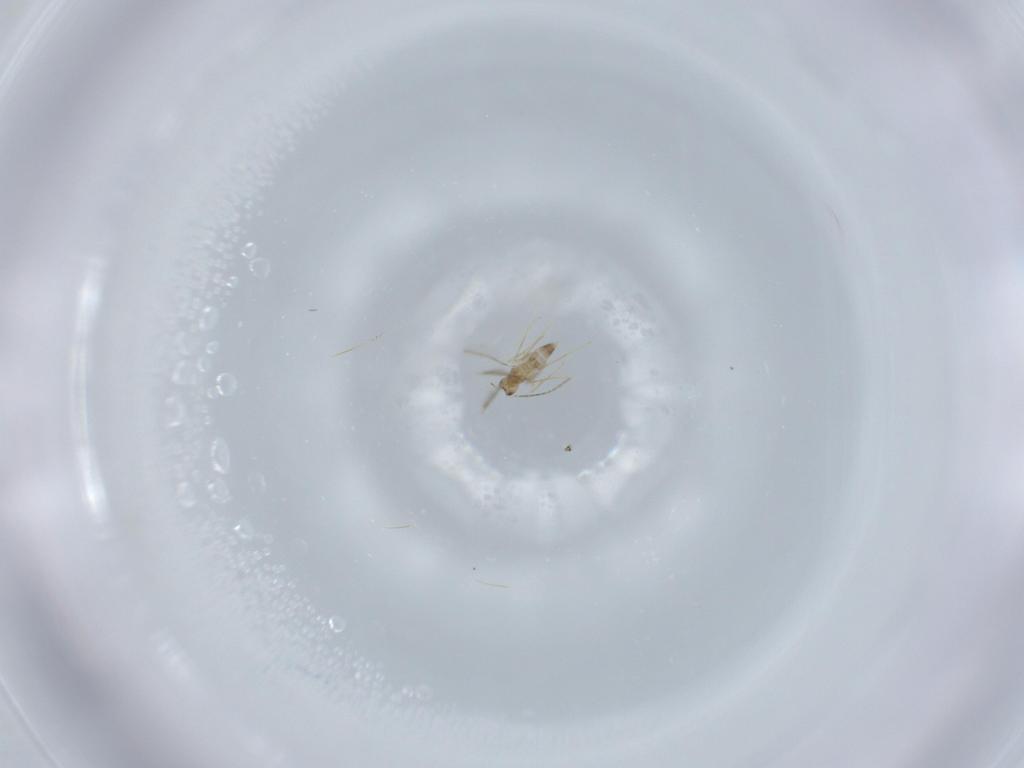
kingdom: Animalia
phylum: Arthropoda
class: Insecta
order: Hymenoptera
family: Mymaridae
